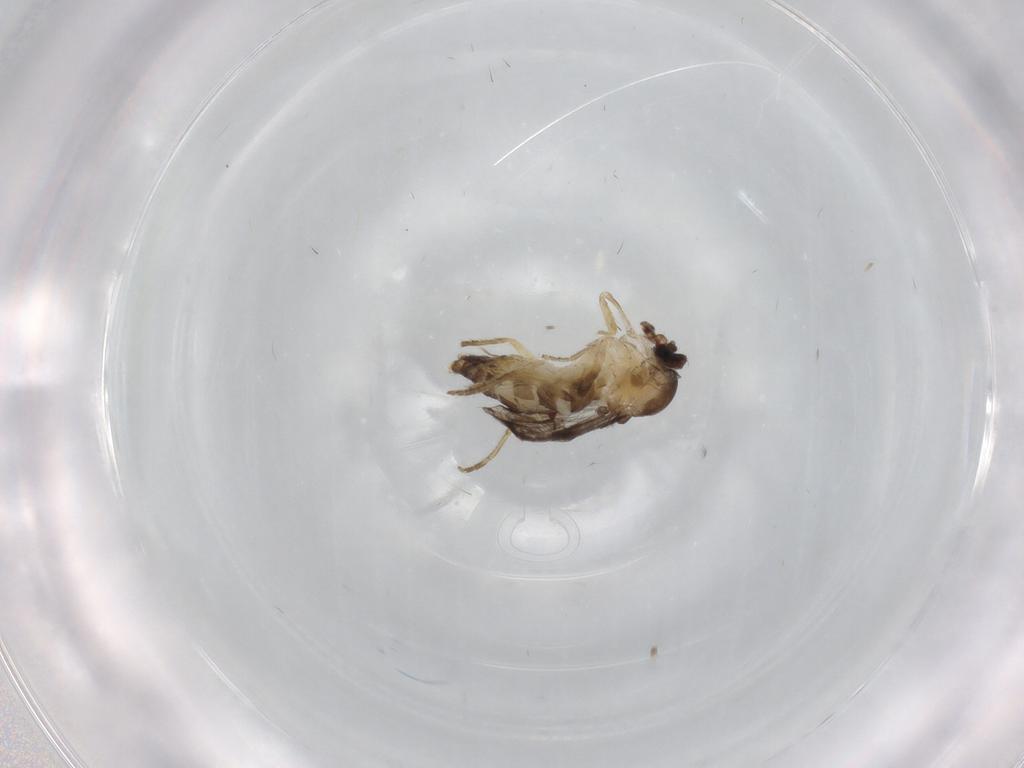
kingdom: Animalia
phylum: Arthropoda
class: Insecta
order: Diptera
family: Ceratopogonidae
